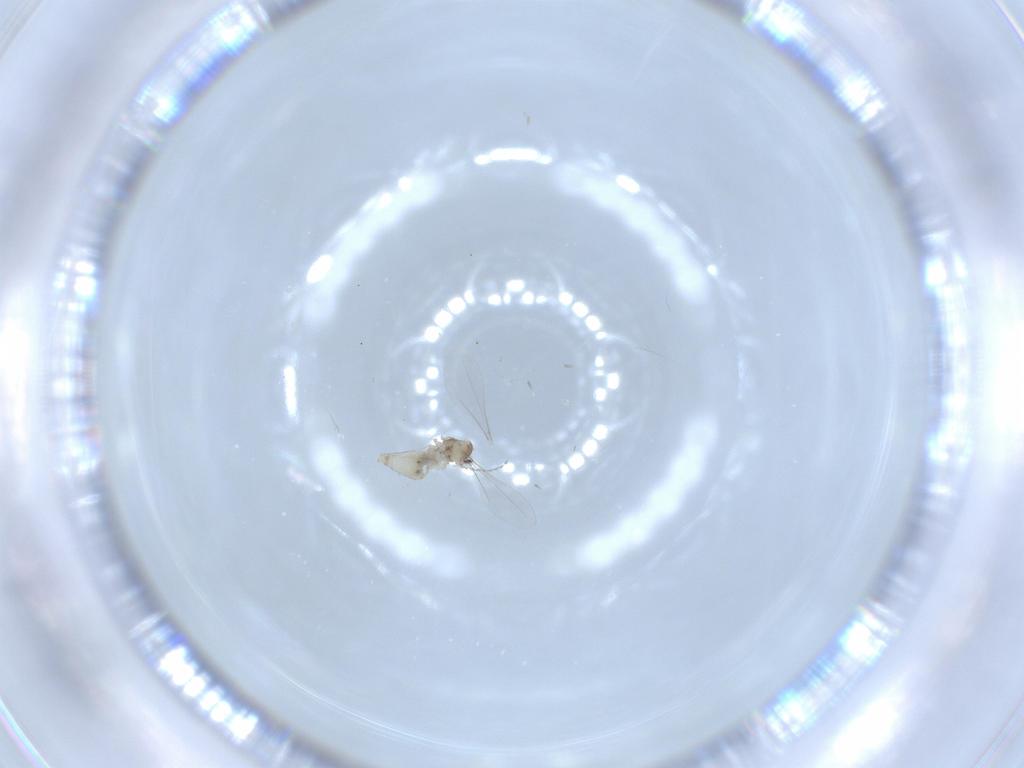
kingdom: Animalia
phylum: Arthropoda
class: Insecta
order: Diptera
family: Psychodidae
